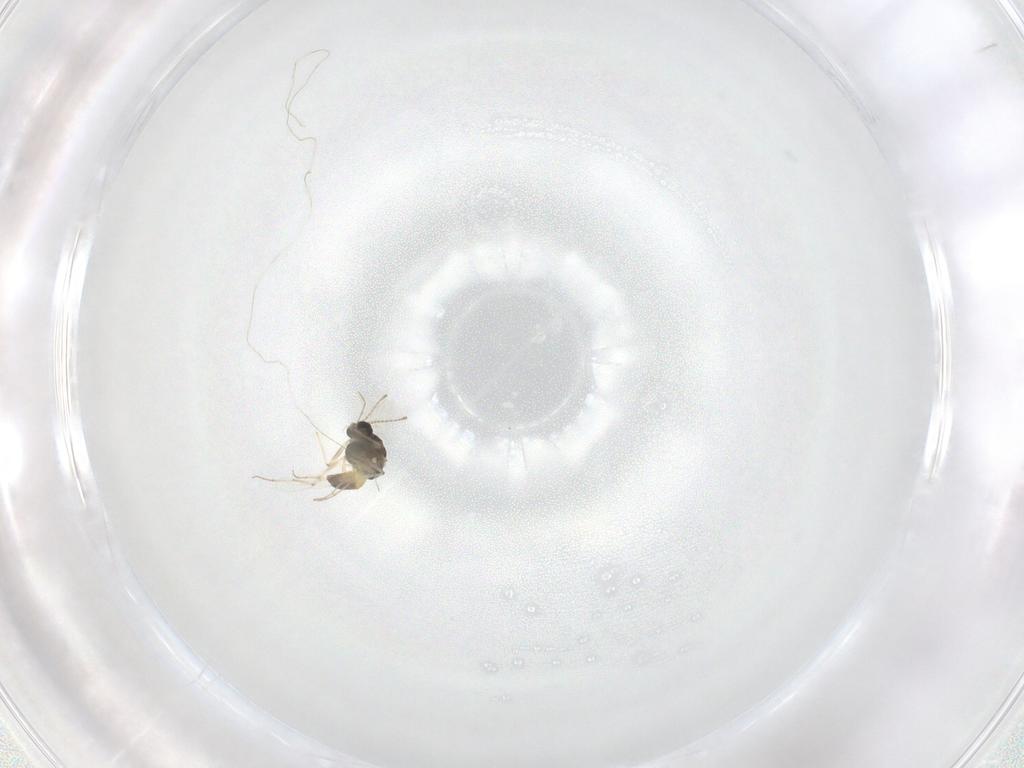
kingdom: Animalia
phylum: Arthropoda
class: Insecta
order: Diptera
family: Chironomidae
